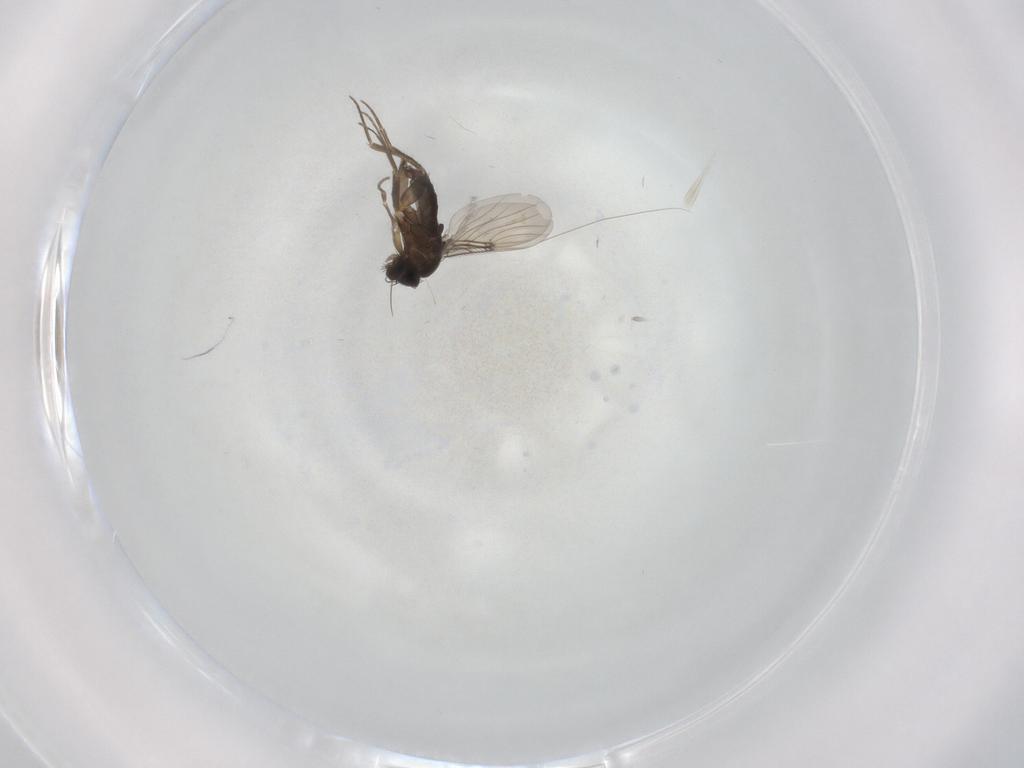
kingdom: Animalia
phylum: Arthropoda
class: Insecta
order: Diptera
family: Phoridae
